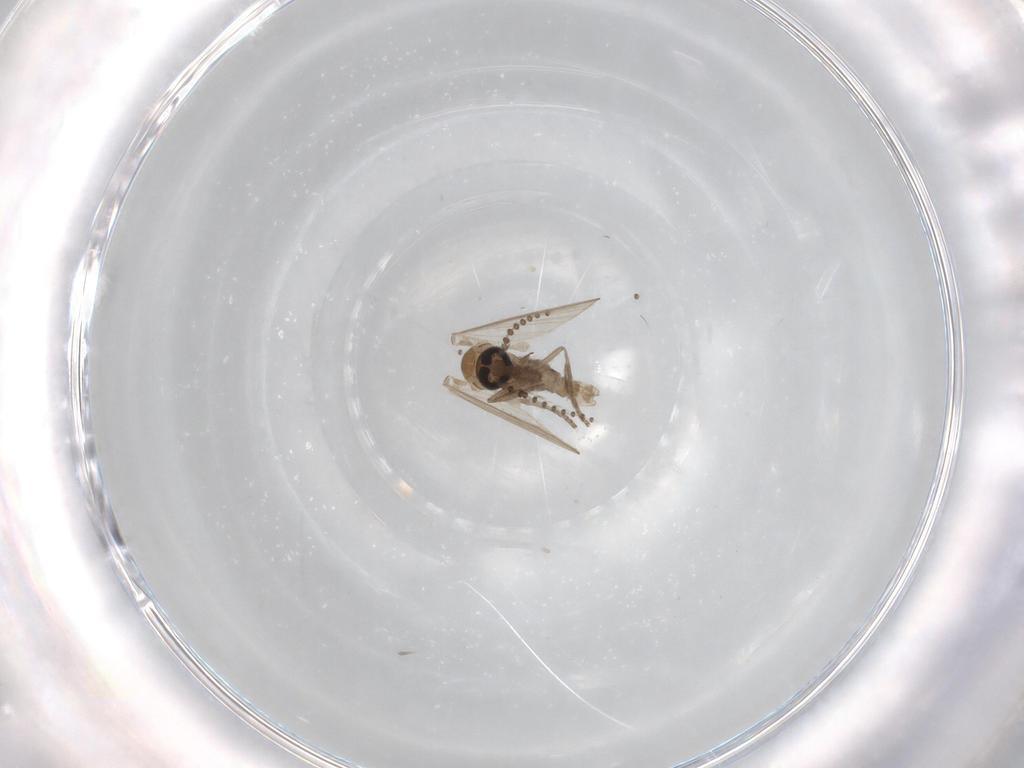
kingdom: Animalia
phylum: Arthropoda
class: Insecta
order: Diptera
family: Psychodidae
